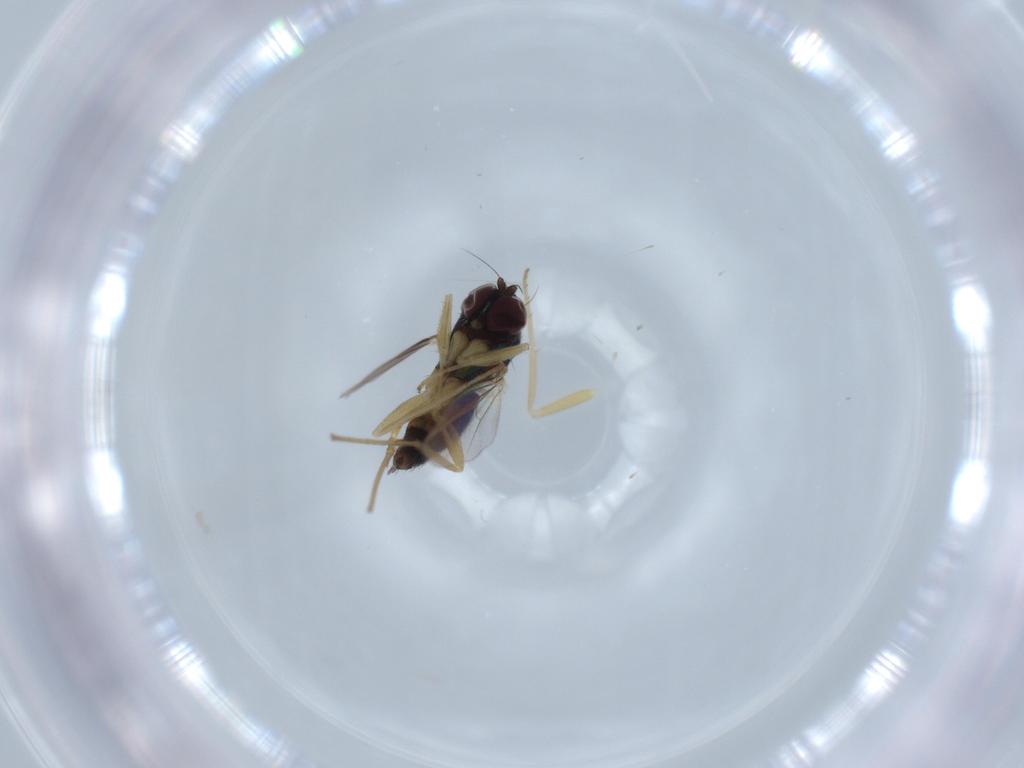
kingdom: Animalia
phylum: Arthropoda
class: Insecta
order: Diptera
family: Dolichopodidae
